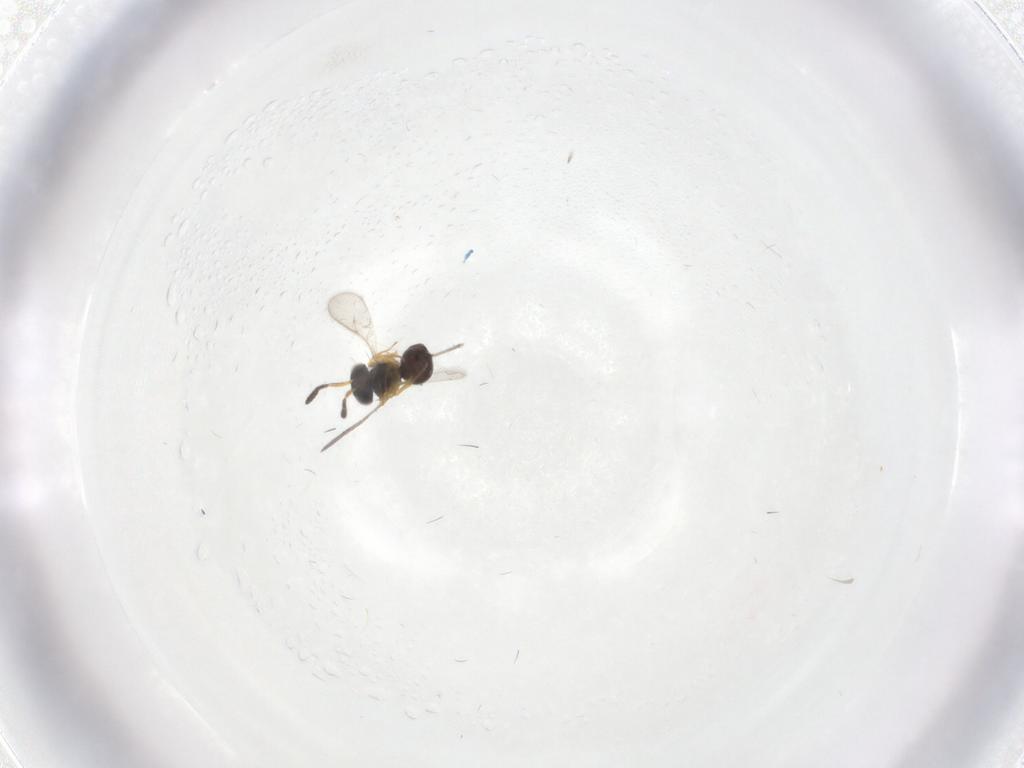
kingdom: Animalia
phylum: Arthropoda
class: Insecta
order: Hymenoptera
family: Scelionidae
